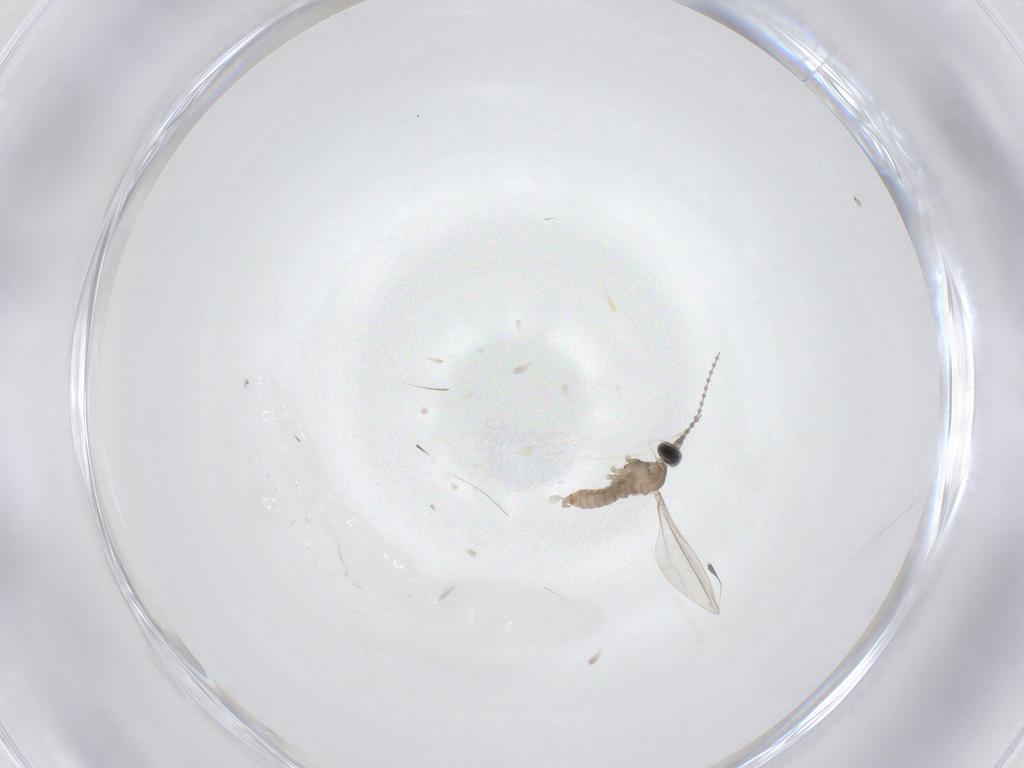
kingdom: Animalia
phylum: Arthropoda
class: Insecta
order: Diptera
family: Cecidomyiidae
